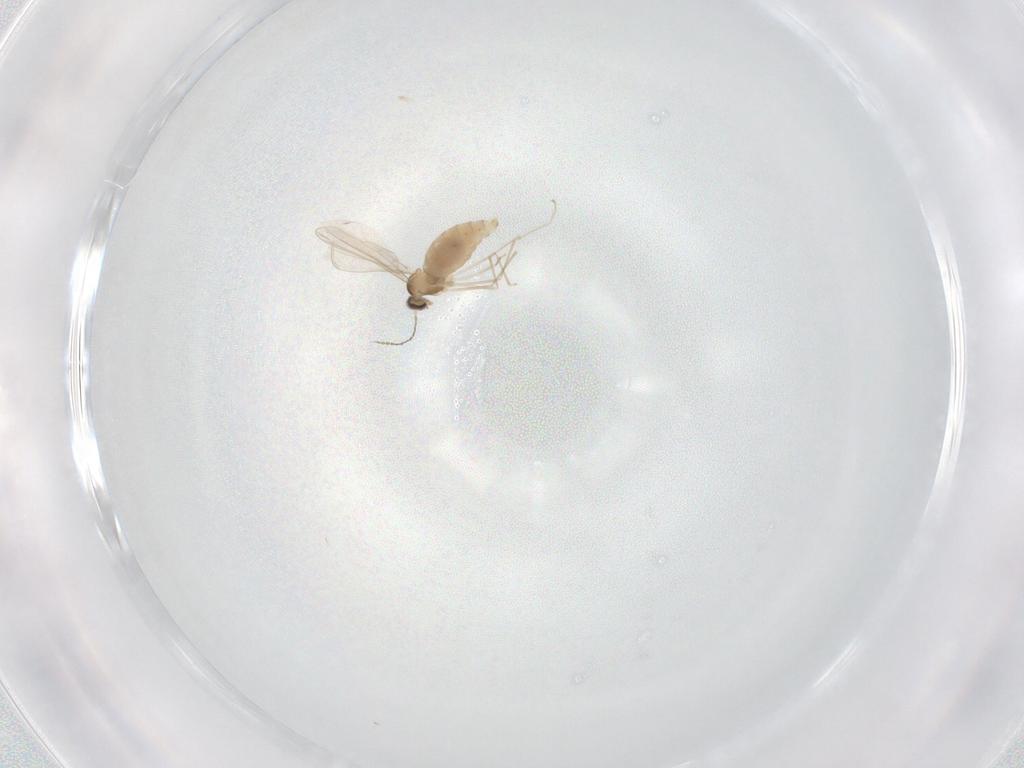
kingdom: Animalia
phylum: Arthropoda
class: Insecta
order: Diptera
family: Cecidomyiidae
